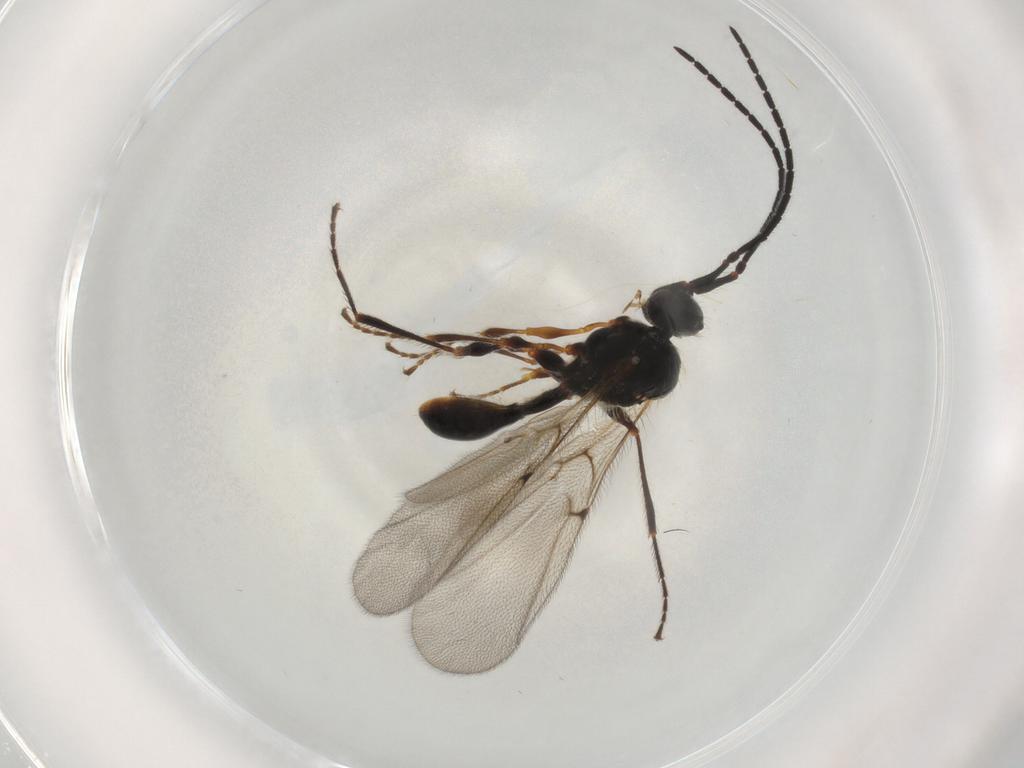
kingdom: Animalia
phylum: Arthropoda
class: Insecta
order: Hymenoptera
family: Diapriidae
